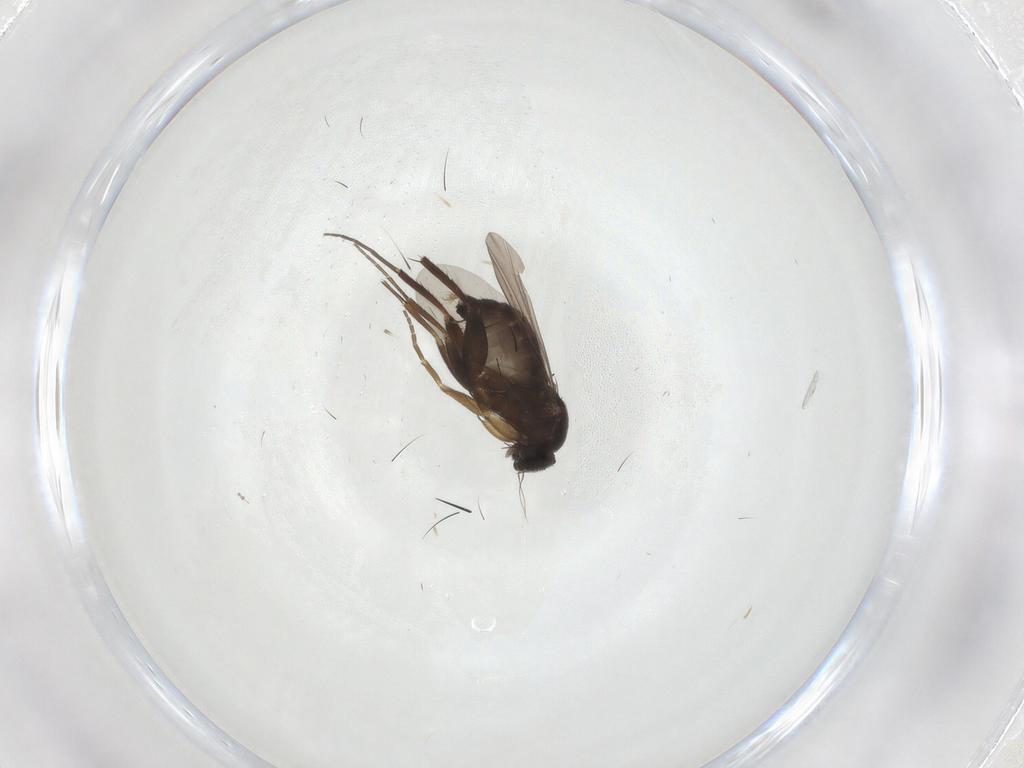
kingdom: Animalia
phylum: Arthropoda
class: Insecta
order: Diptera
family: Phoridae
